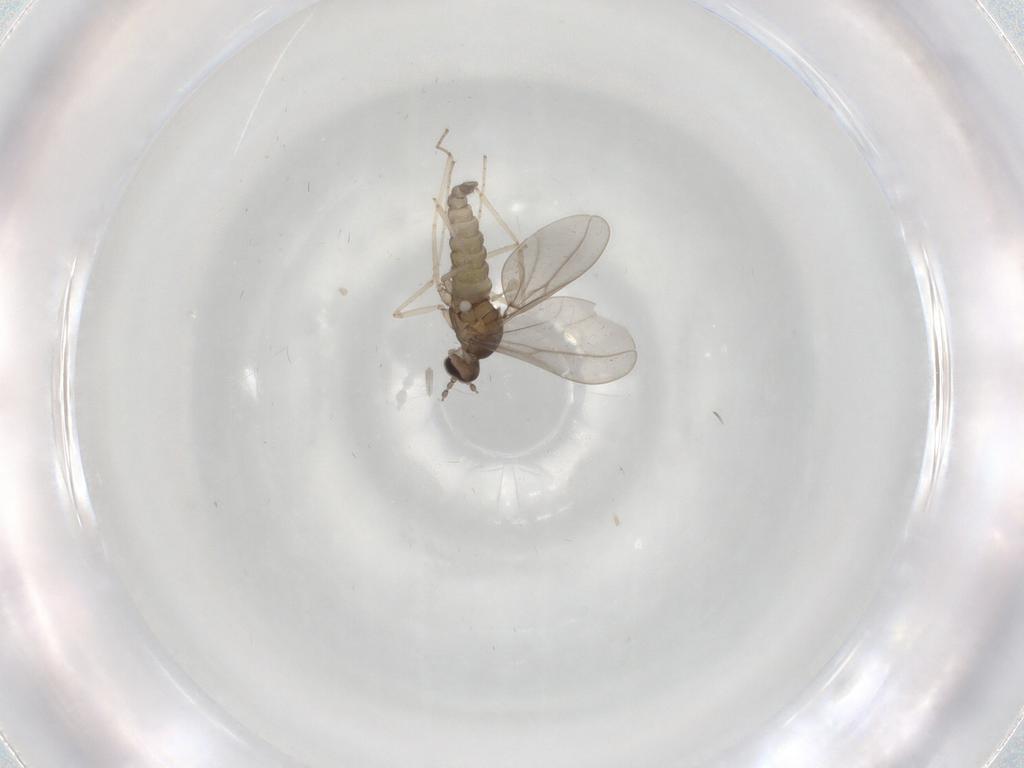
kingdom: Animalia
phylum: Arthropoda
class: Insecta
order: Diptera
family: Cecidomyiidae
